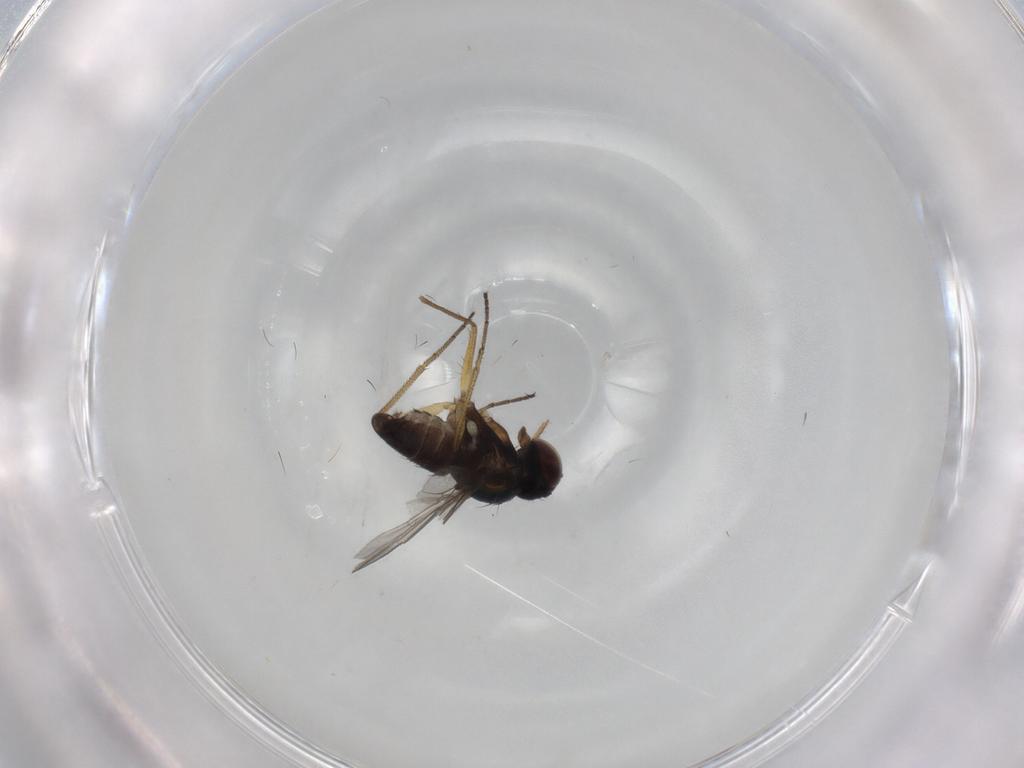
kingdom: Animalia
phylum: Arthropoda
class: Insecta
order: Diptera
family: Dolichopodidae
